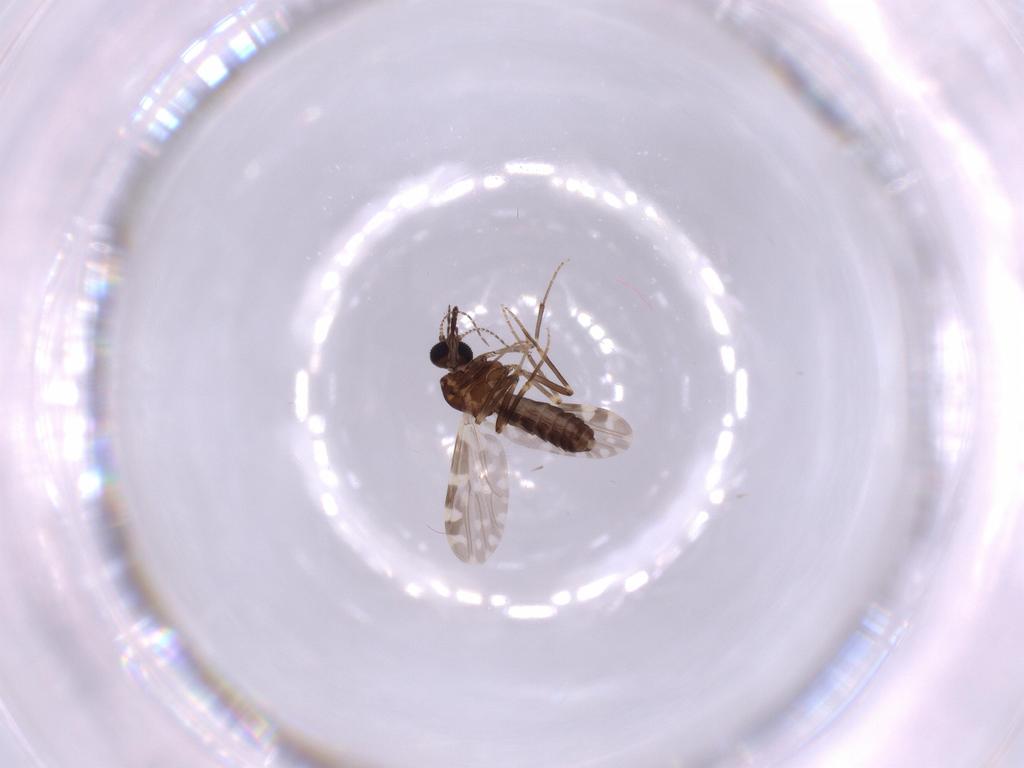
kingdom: Animalia
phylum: Arthropoda
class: Insecta
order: Diptera
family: Ceratopogonidae
